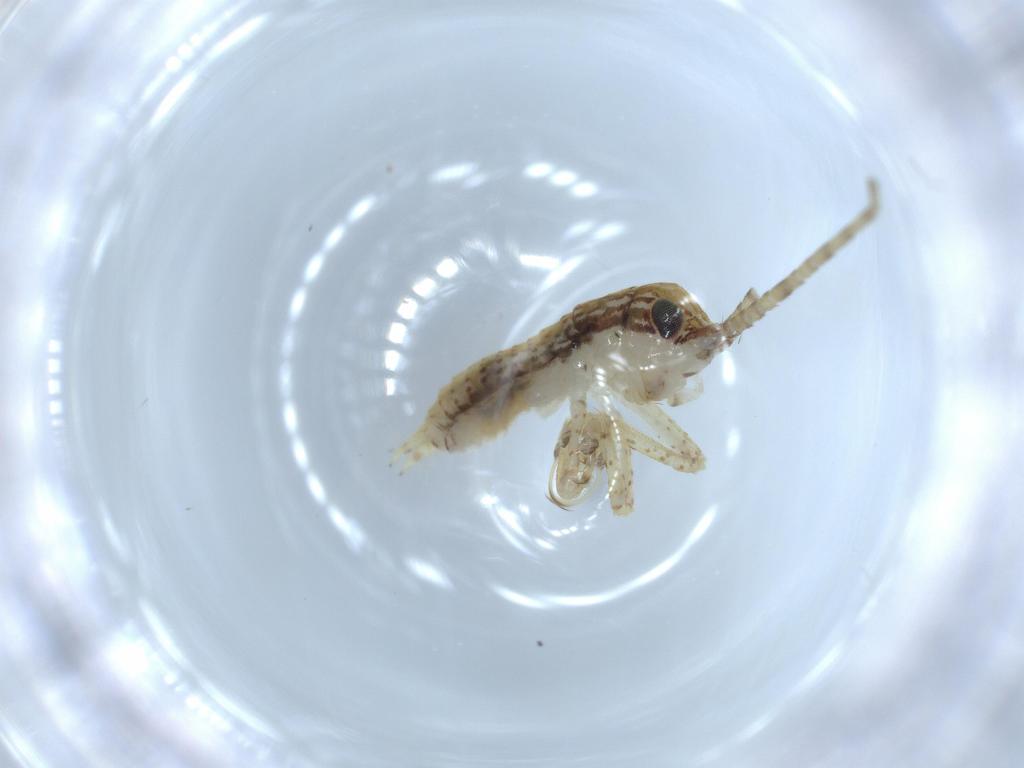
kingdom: Animalia
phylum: Arthropoda
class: Insecta
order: Orthoptera
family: Gryllidae
